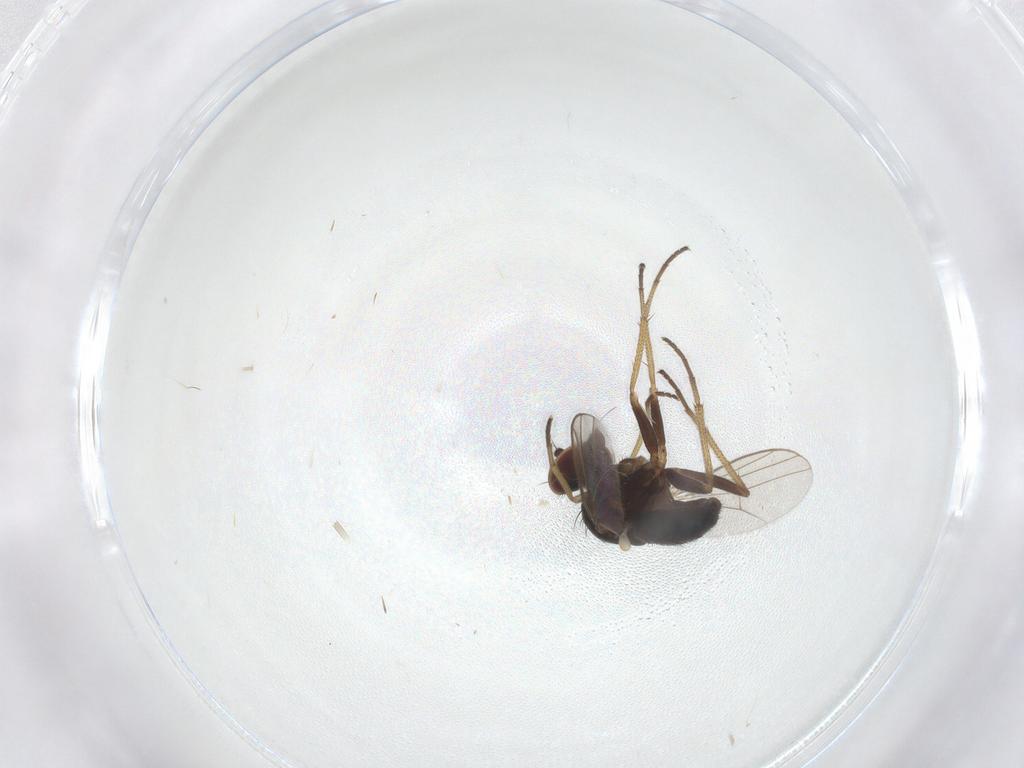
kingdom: Animalia
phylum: Arthropoda
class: Insecta
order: Diptera
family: Dolichopodidae
